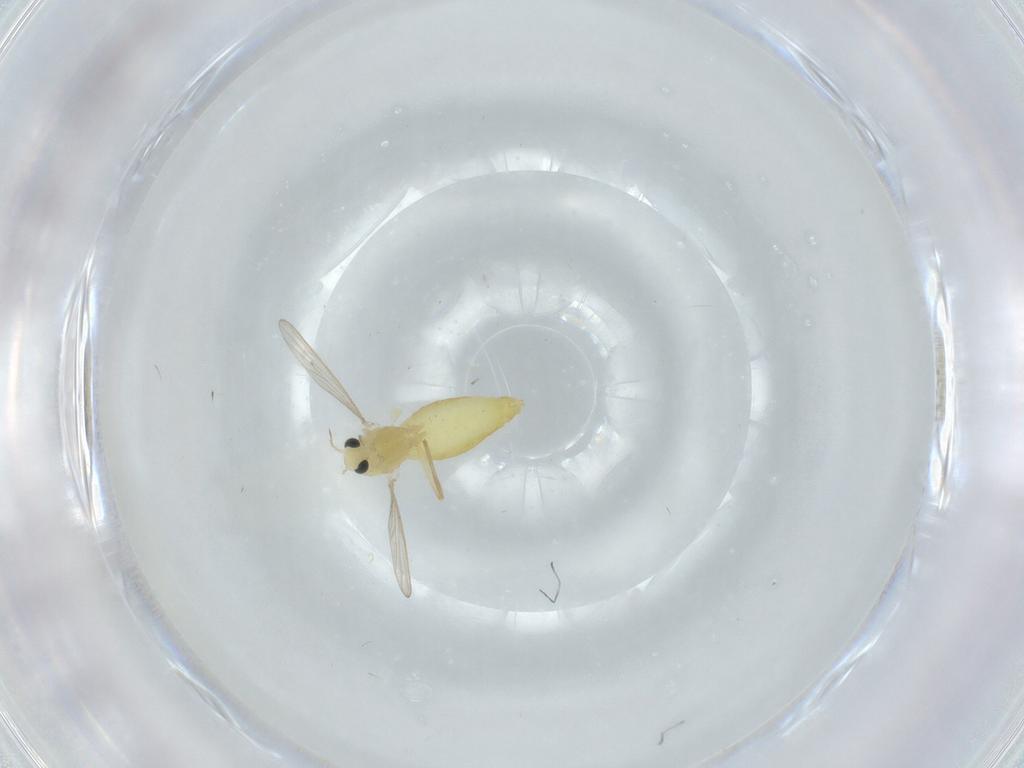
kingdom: Animalia
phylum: Arthropoda
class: Insecta
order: Diptera
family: Chironomidae
